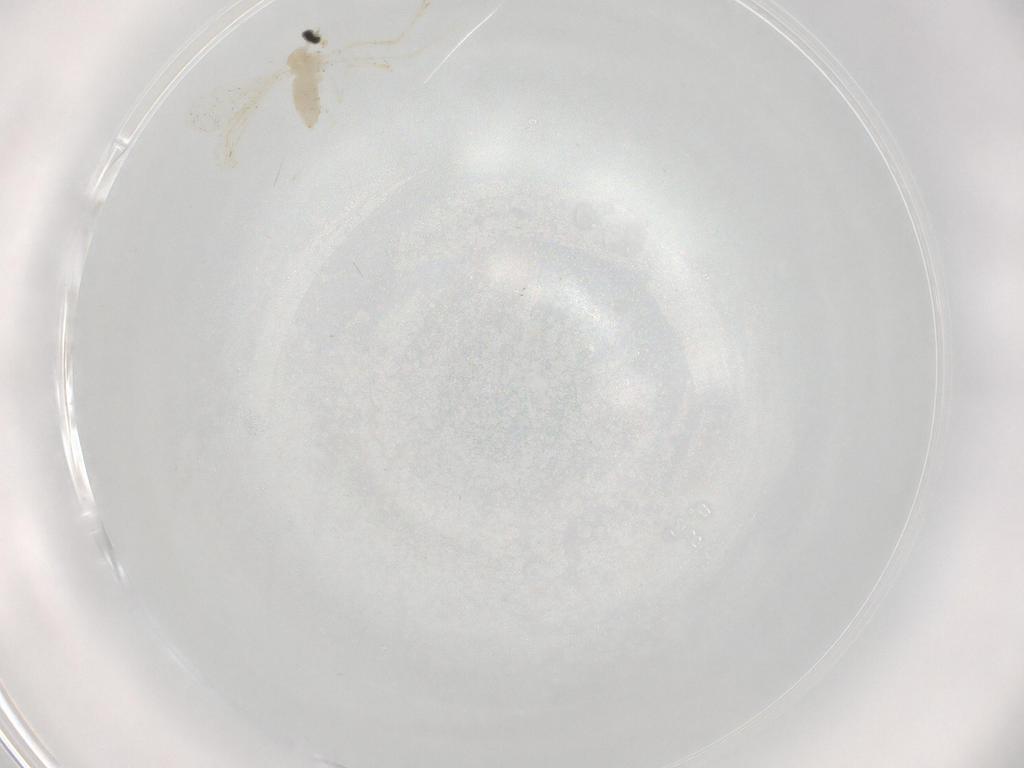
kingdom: Animalia
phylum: Arthropoda
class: Insecta
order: Diptera
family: Cecidomyiidae
